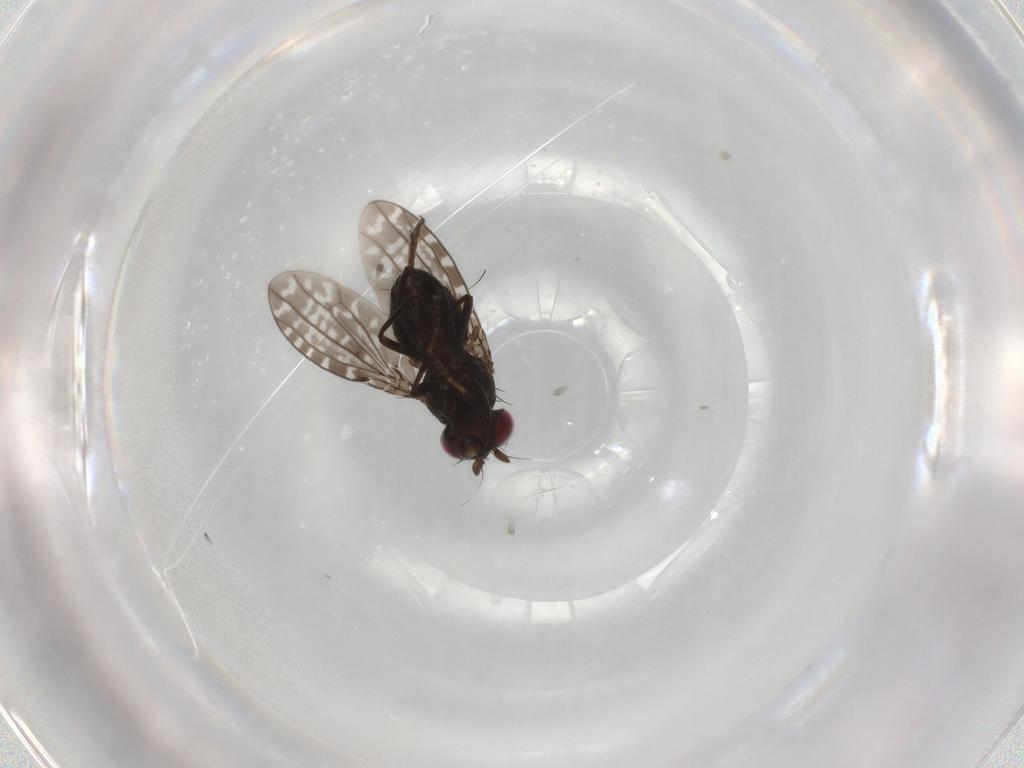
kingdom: Animalia
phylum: Arthropoda
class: Insecta
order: Diptera
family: Ephydridae
